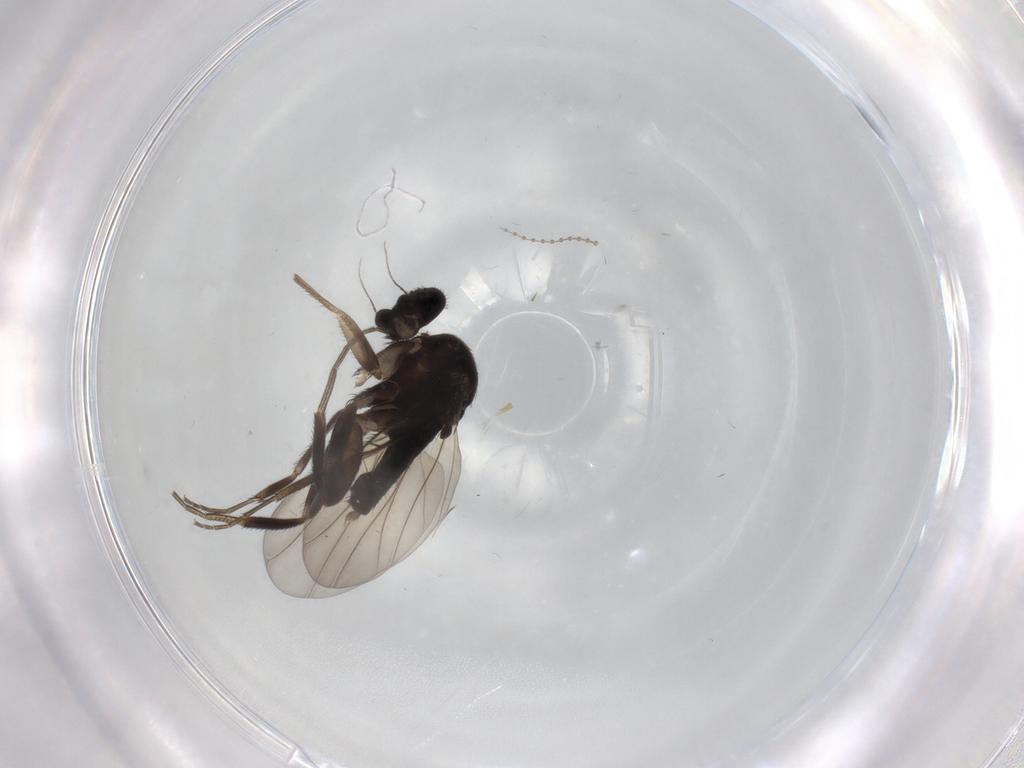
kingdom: Animalia
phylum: Arthropoda
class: Insecta
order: Diptera
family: Phoridae
